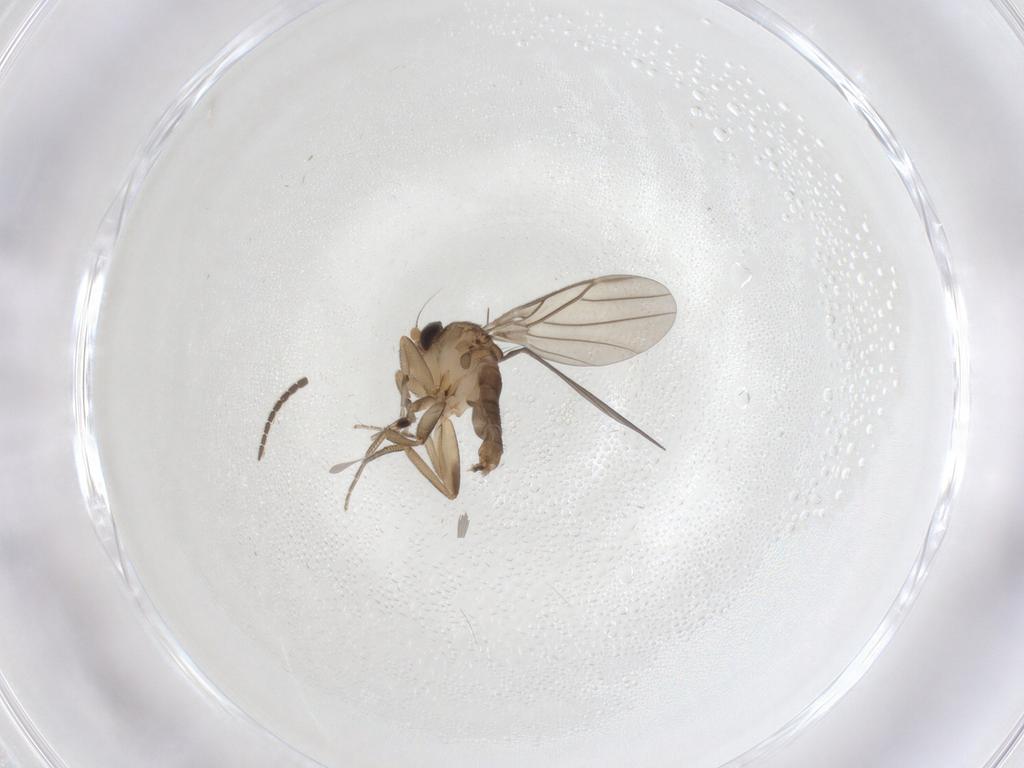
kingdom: Animalia
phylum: Arthropoda
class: Insecta
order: Diptera
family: Mycetophilidae
